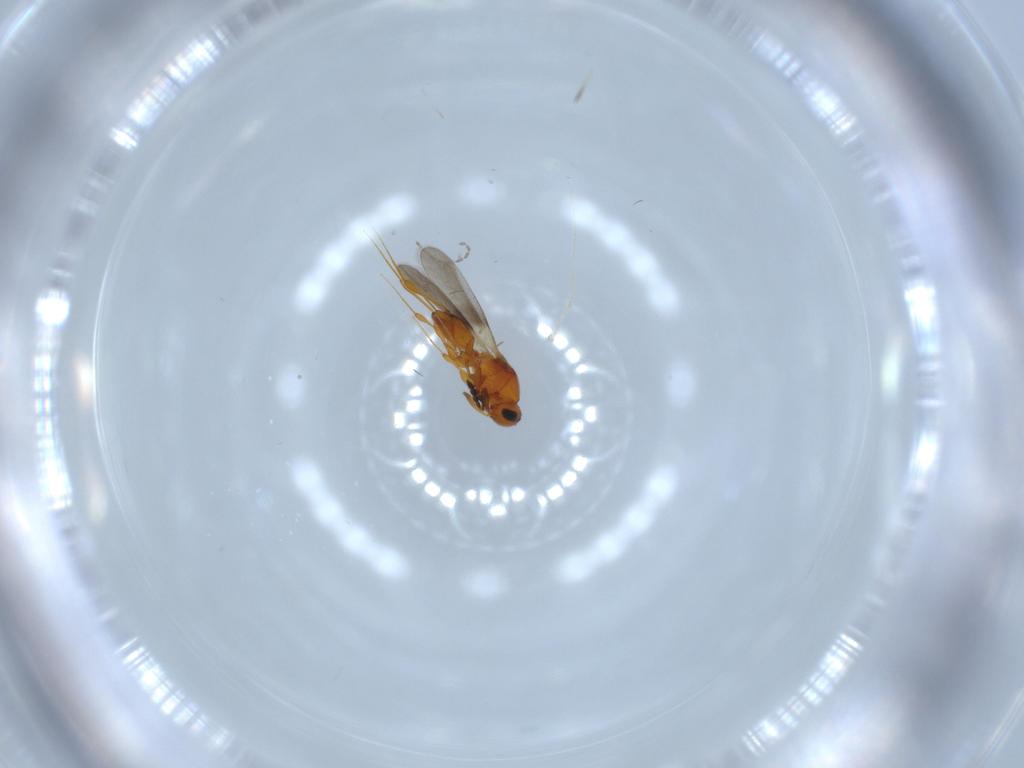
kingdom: Animalia
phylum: Arthropoda
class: Insecta
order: Hymenoptera
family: Platygastridae
